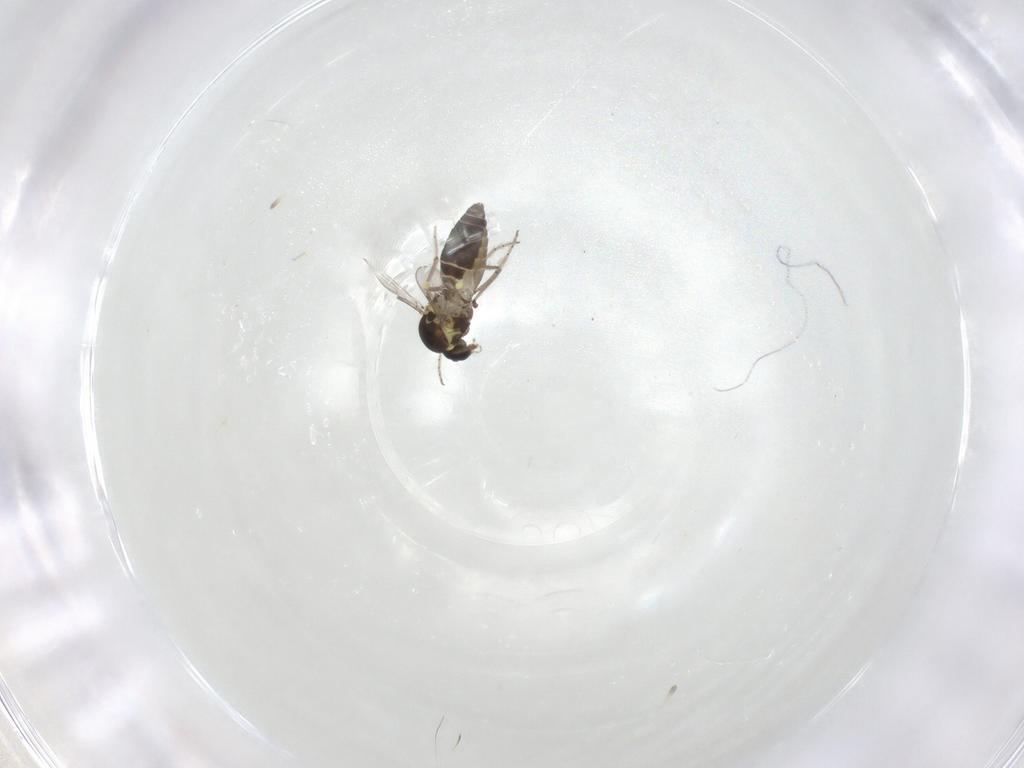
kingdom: Animalia
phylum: Arthropoda
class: Insecta
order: Diptera
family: Ceratopogonidae
